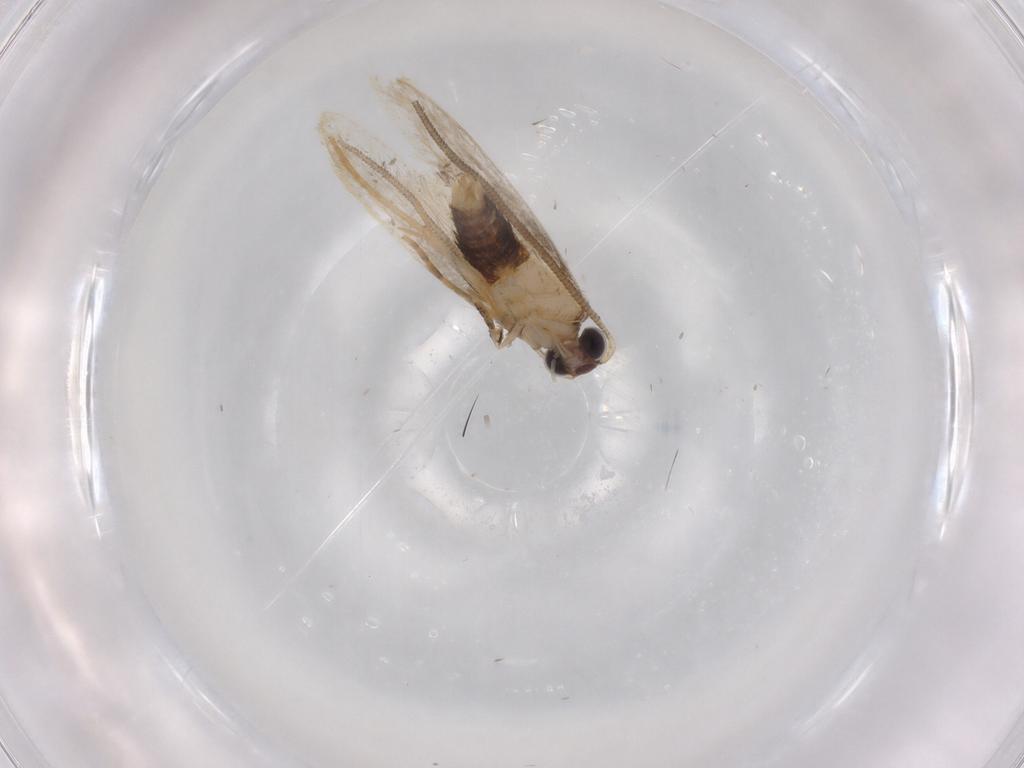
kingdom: Animalia
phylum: Arthropoda
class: Insecta
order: Lepidoptera
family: Tineidae
